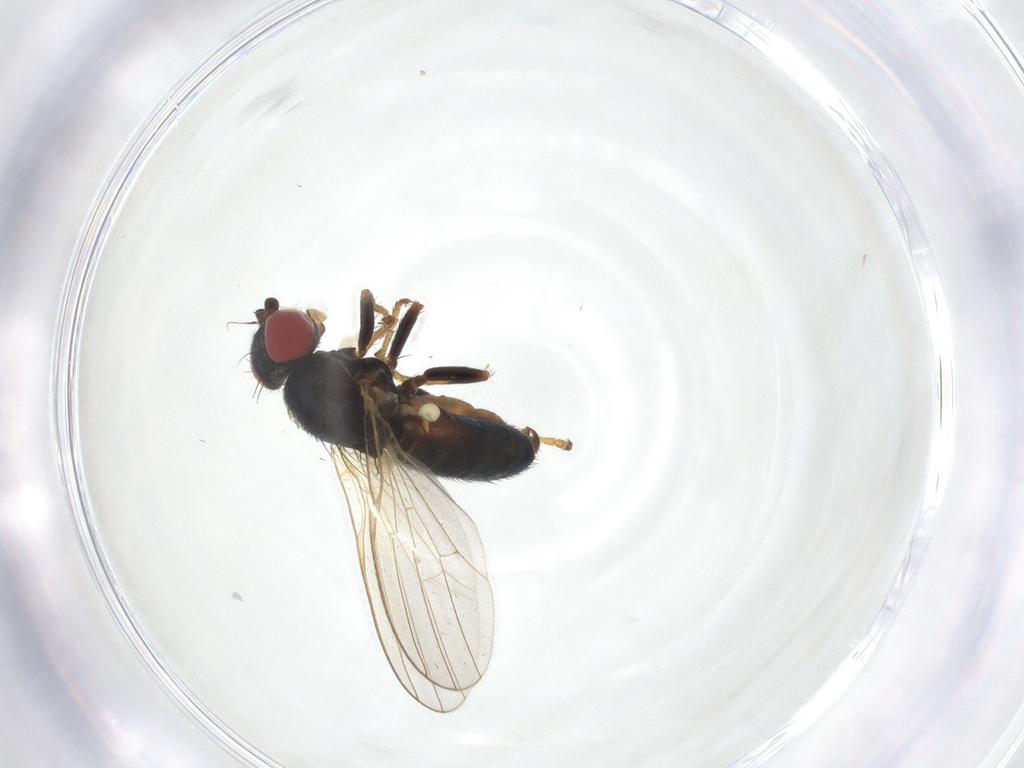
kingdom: Animalia
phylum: Arthropoda
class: Insecta
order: Diptera
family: Chamaemyiidae
